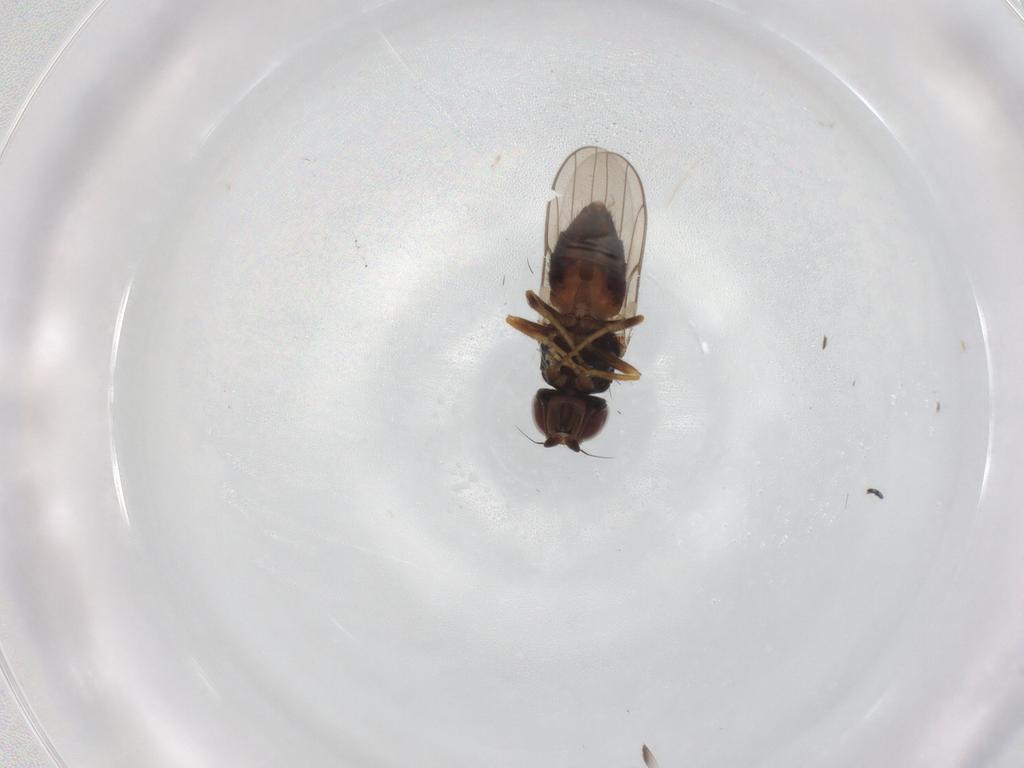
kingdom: Animalia
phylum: Arthropoda
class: Insecta
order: Diptera
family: Chloropidae
